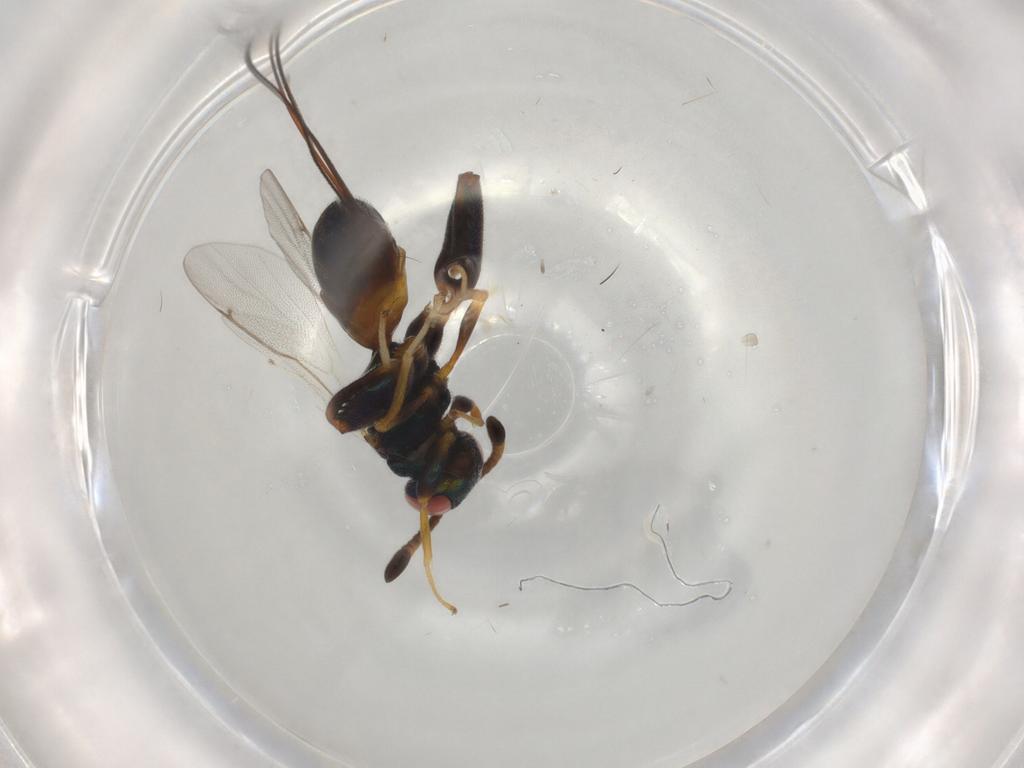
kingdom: Animalia
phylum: Arthropoda
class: Insecta
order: Hymenoptera
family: Torymidae
